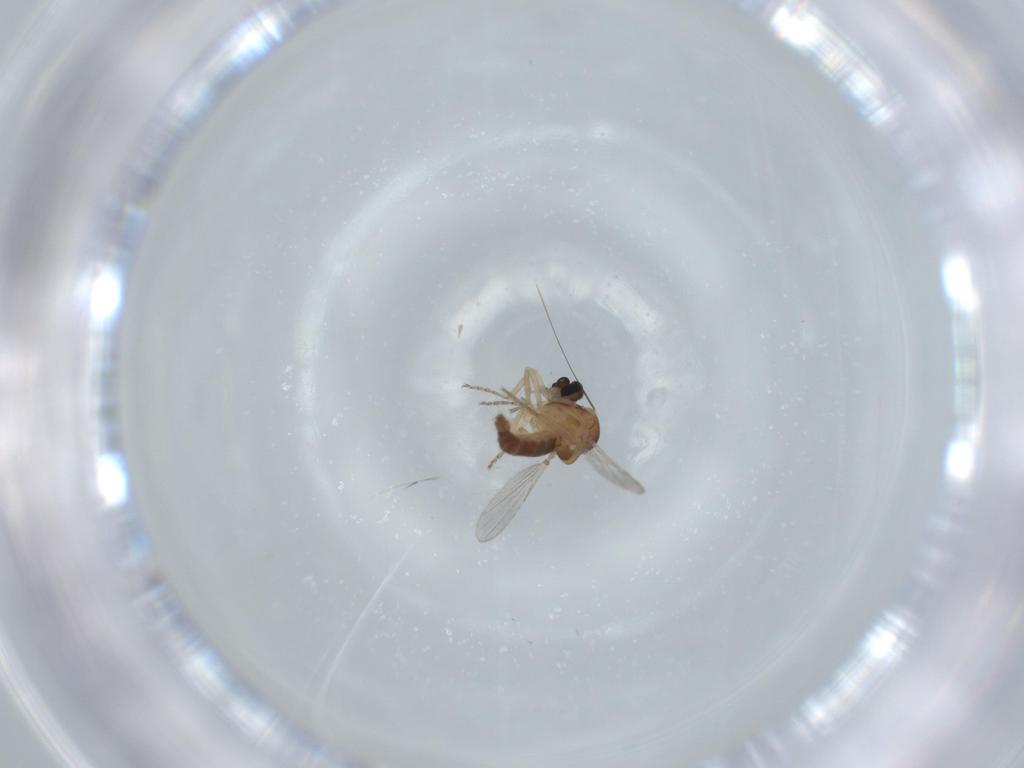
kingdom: Animalia
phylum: Arthropoda
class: Insecta
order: Diptera
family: Ceratopogonidae
